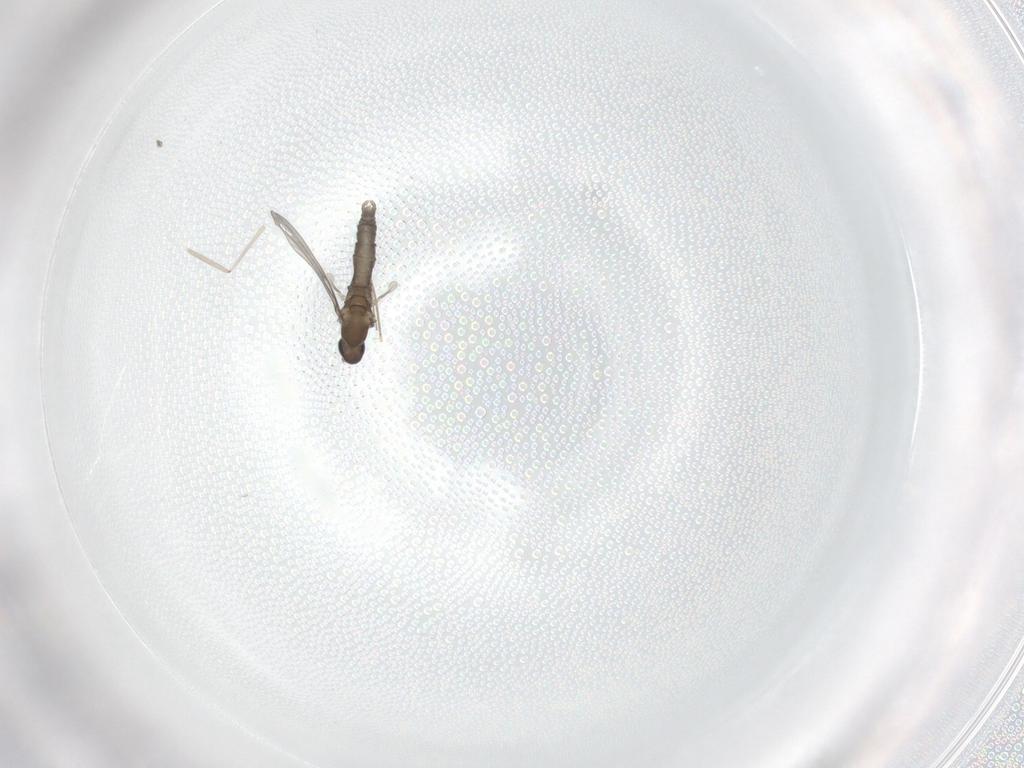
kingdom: Animalia
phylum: Arthropoda
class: Insecta
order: Diptera
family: Cecidomyiidae
